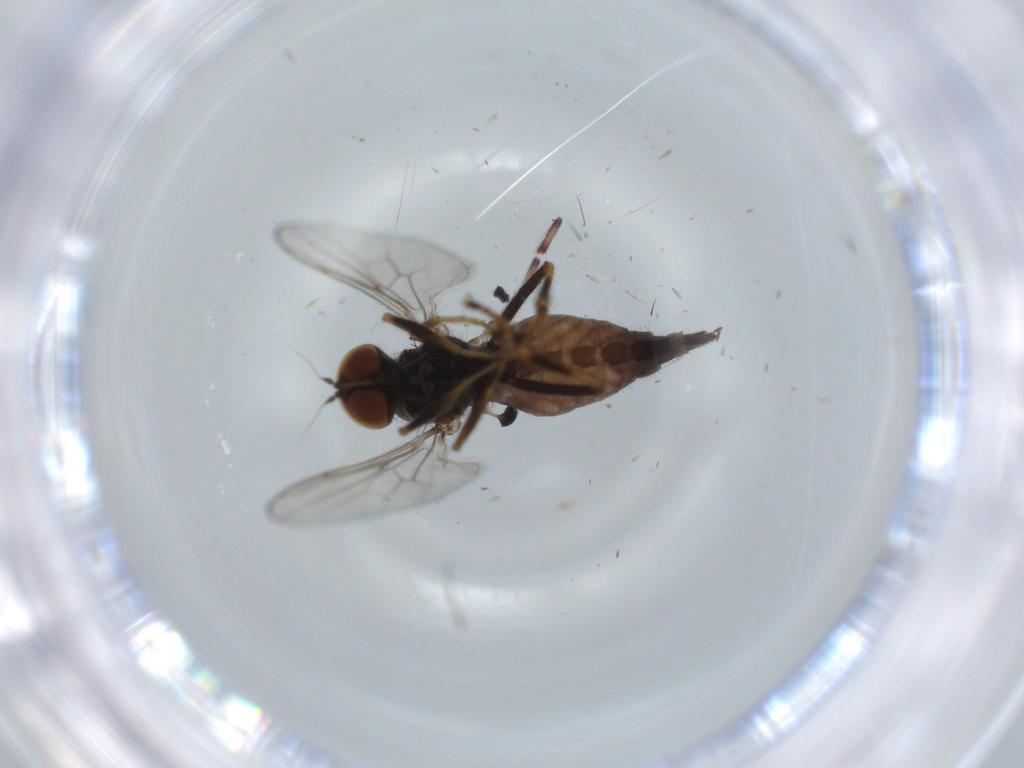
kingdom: Animalia
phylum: Arthropoda
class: Insecta
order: Diptera
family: Hybotidae
